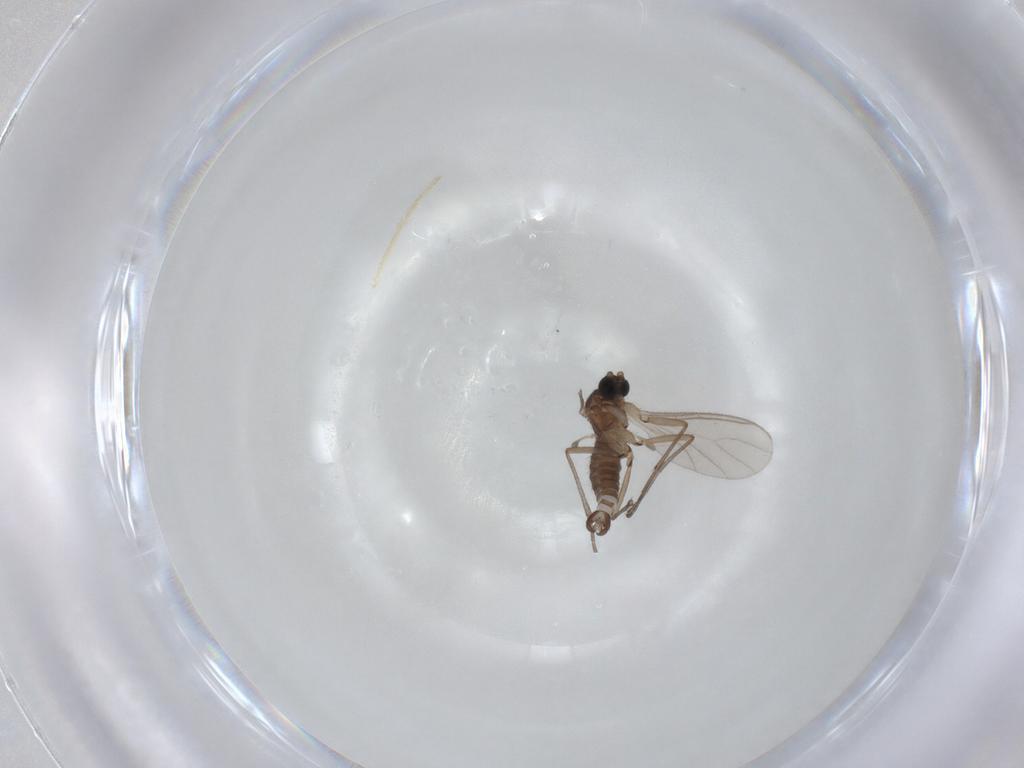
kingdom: Animalia
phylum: Arthropoda
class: Insecta
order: Diptera
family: Sciaridae
